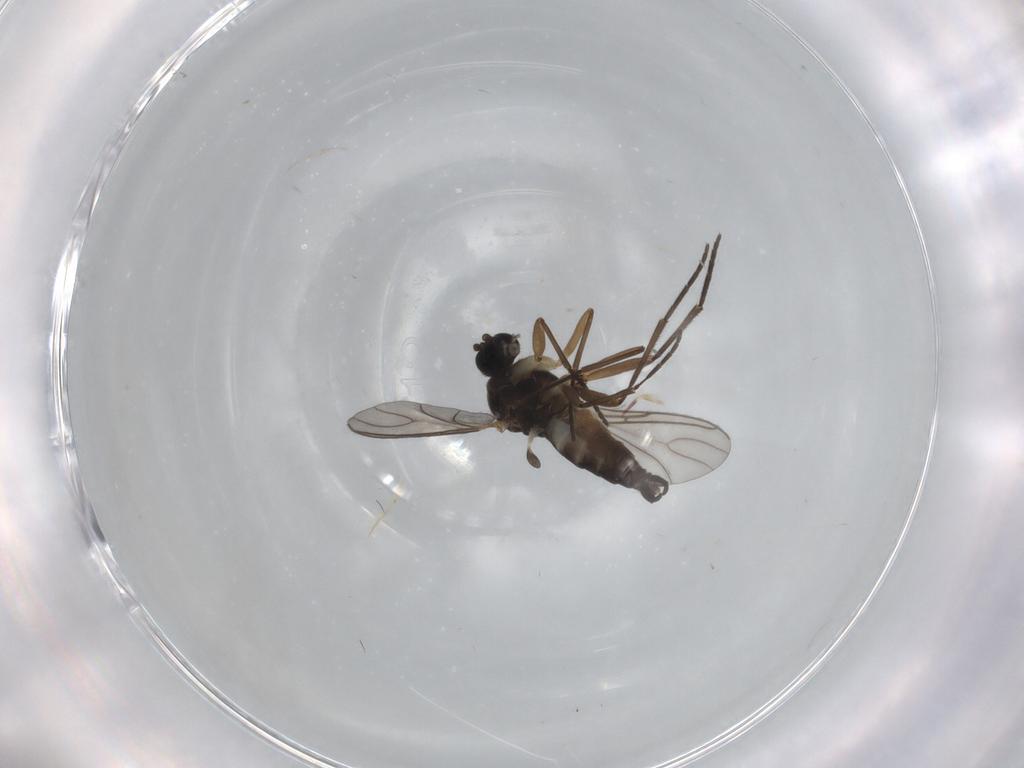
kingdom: Animalia
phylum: Arthropoda
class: Insecta
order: Diptera
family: Sciaridae
